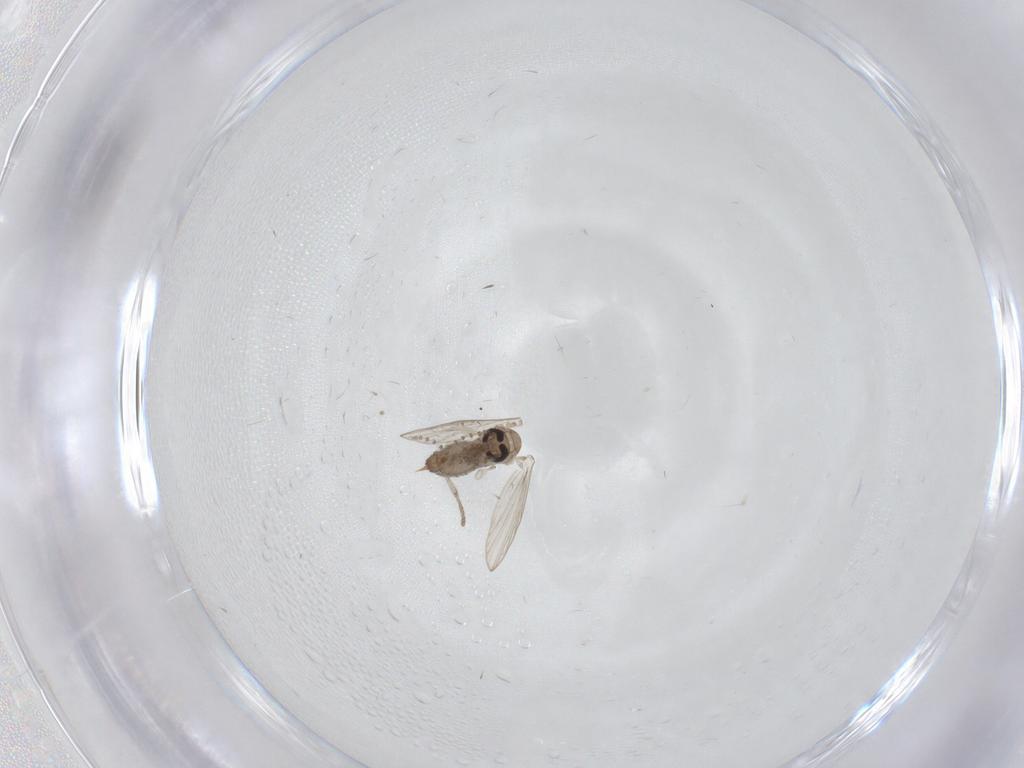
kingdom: Animalia
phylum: Arthropoda
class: Insecta
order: Diptera
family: Psychodidae
